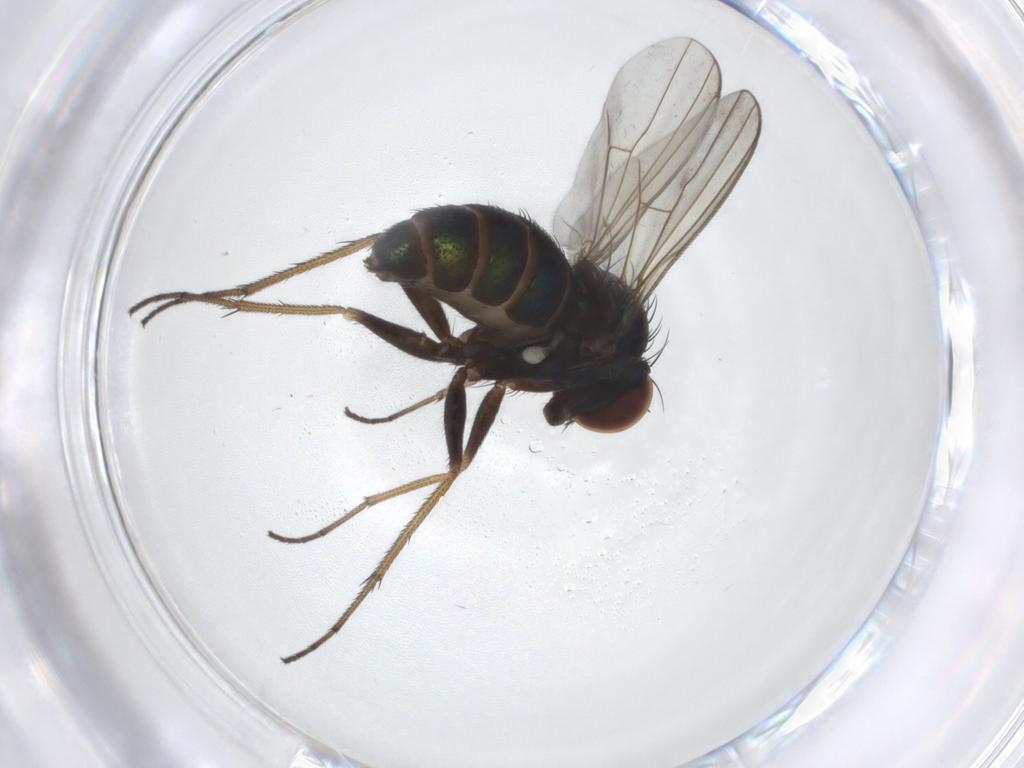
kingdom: Animalia
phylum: Arthropoda
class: Insecta
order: Diptera
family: Dolichopodidae
